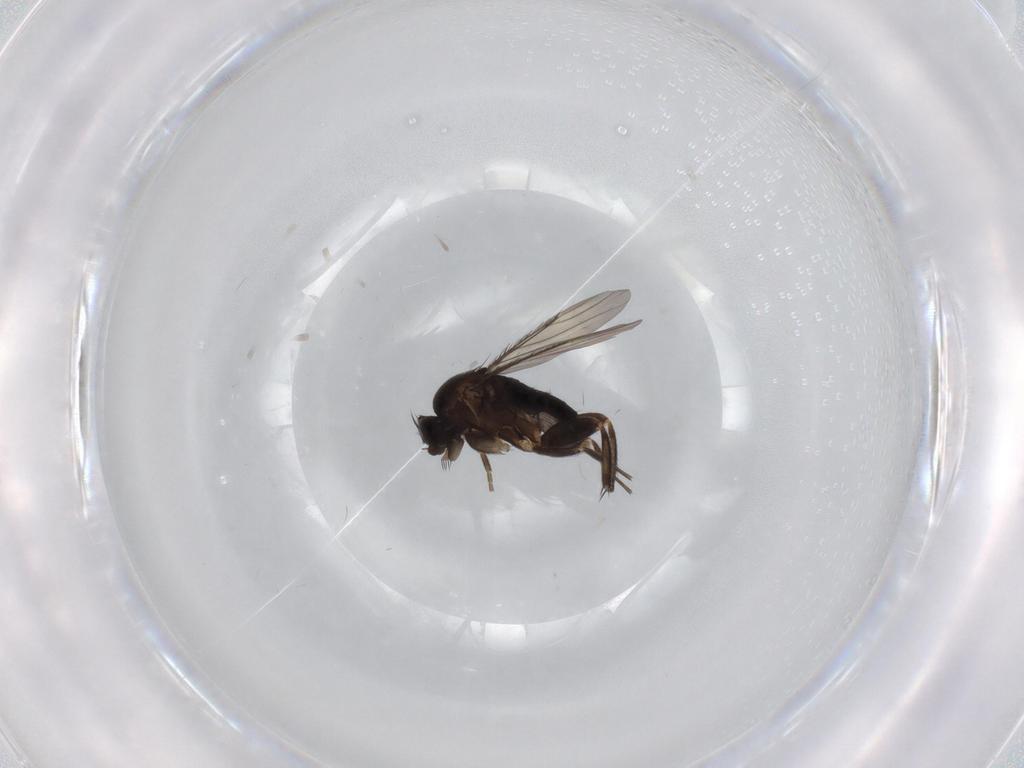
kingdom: Animalia
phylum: Arthropoda
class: Insecta
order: Diptera
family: Phoridae
